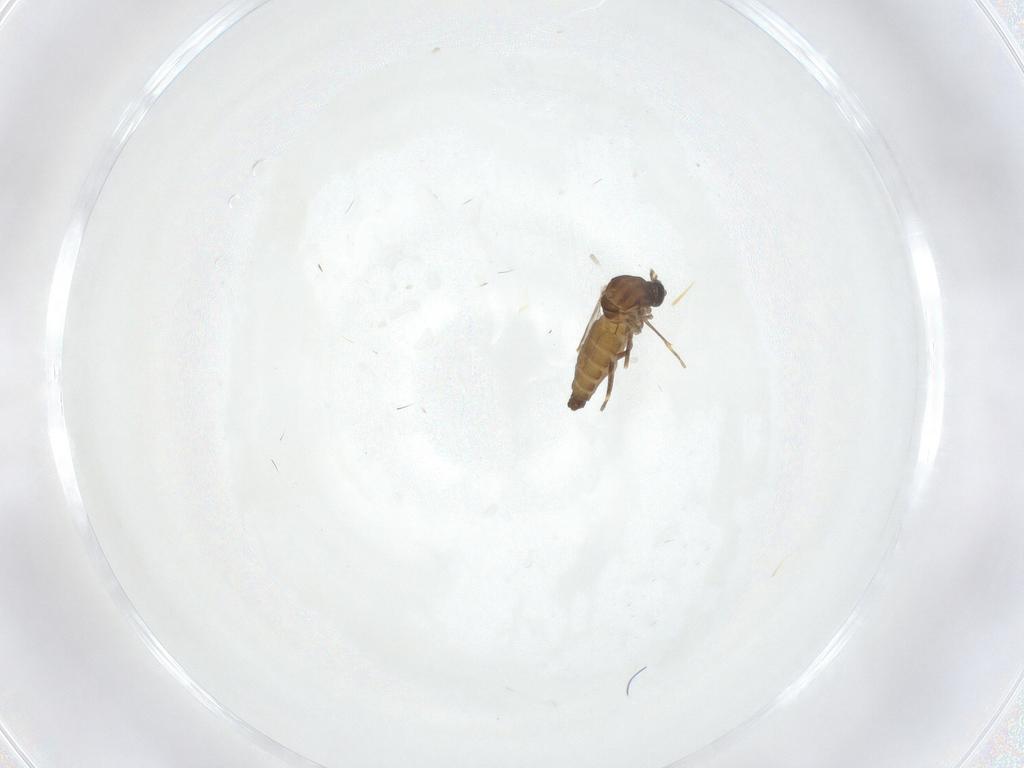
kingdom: Animalia
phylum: Arthropoda
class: Insecta
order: Diptera
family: Ceratopogonidae
